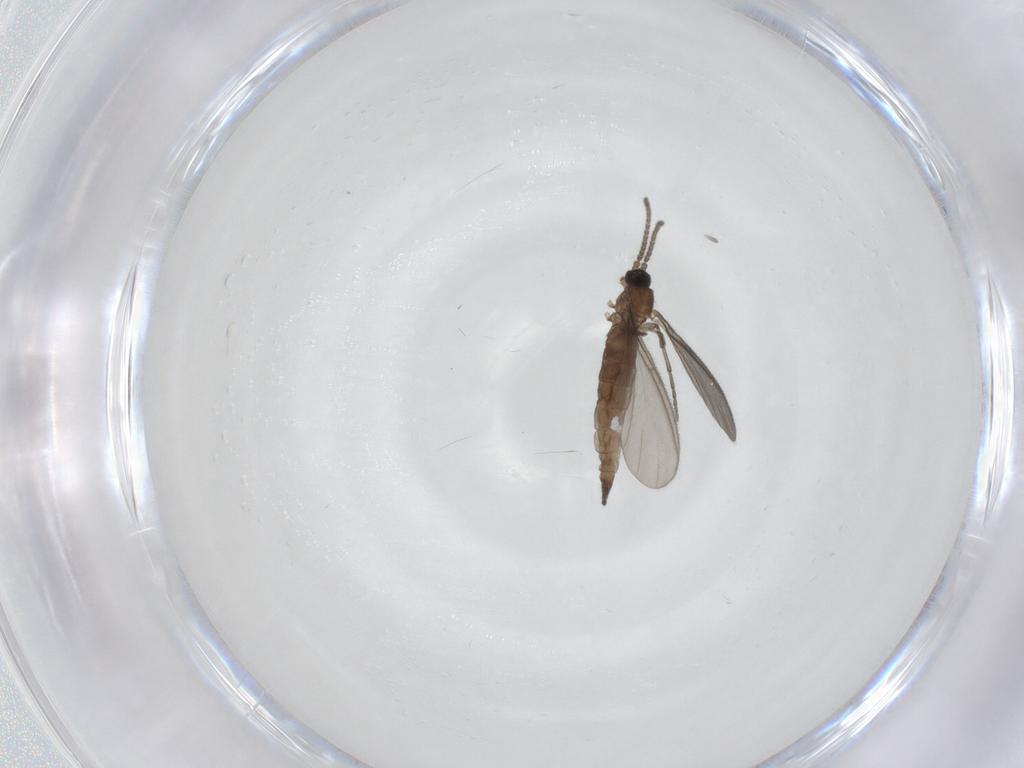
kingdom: Animalia
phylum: Arthropoda
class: Insecta
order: Diptera
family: Sciaridae
